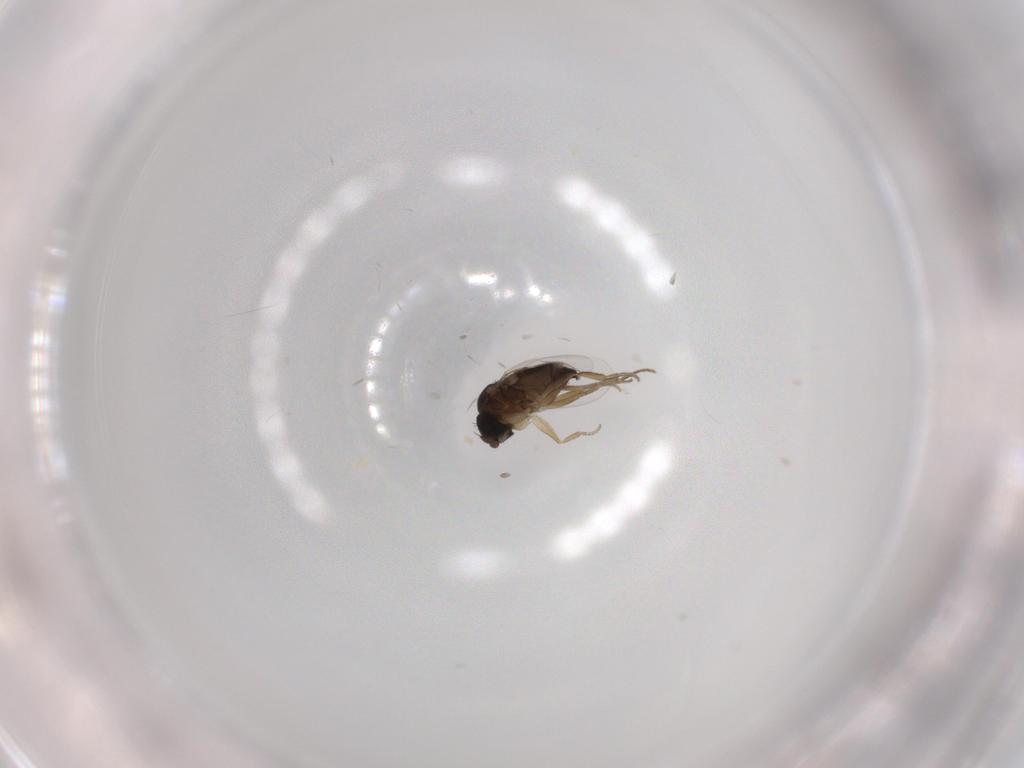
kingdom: Animalia
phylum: Arthropoda
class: Insecta
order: Diptera
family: Phoridae
